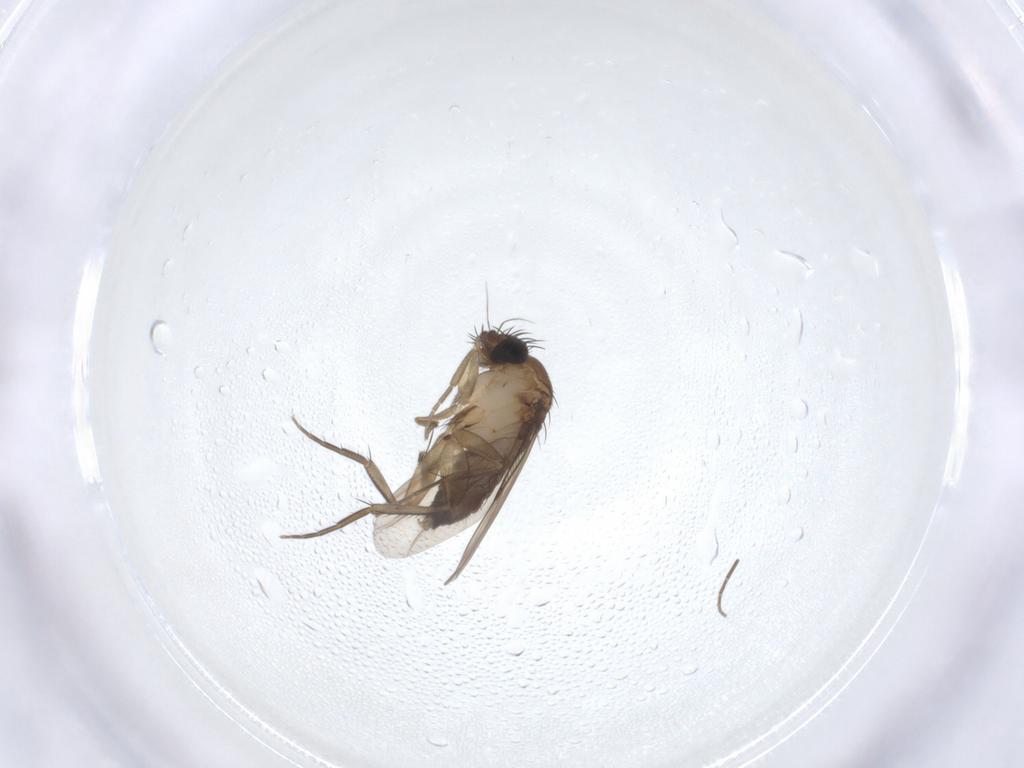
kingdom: Animalia
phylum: Arthropoda
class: Insecta
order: Diptera
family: Phoridae
